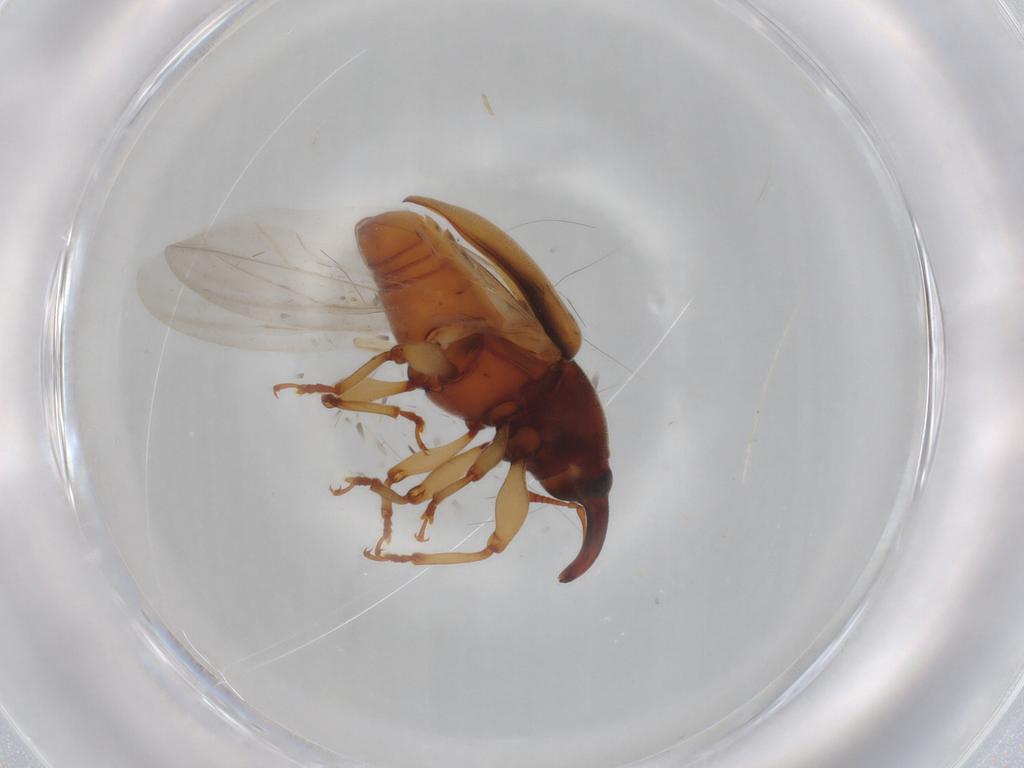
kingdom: Animalia
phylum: Arthropoda
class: Insecta
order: Coleoptera
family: Curculionidae
